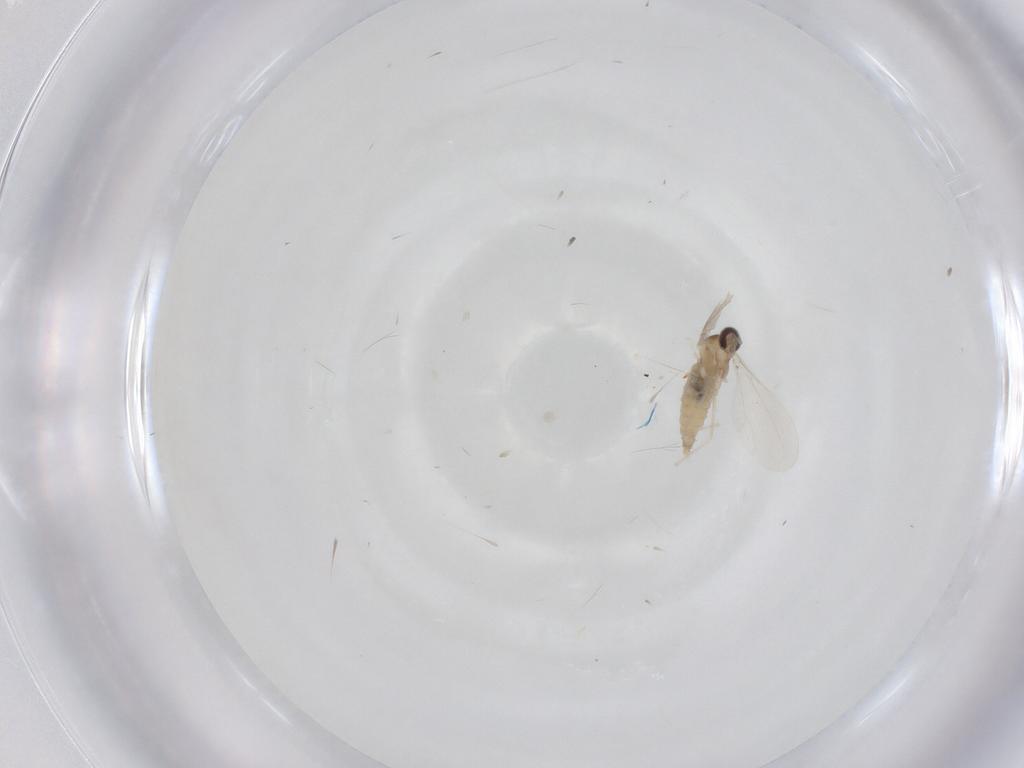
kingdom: Animalia
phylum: Arthropoda
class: Insecta
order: Diptera
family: Cecidomyiidae
